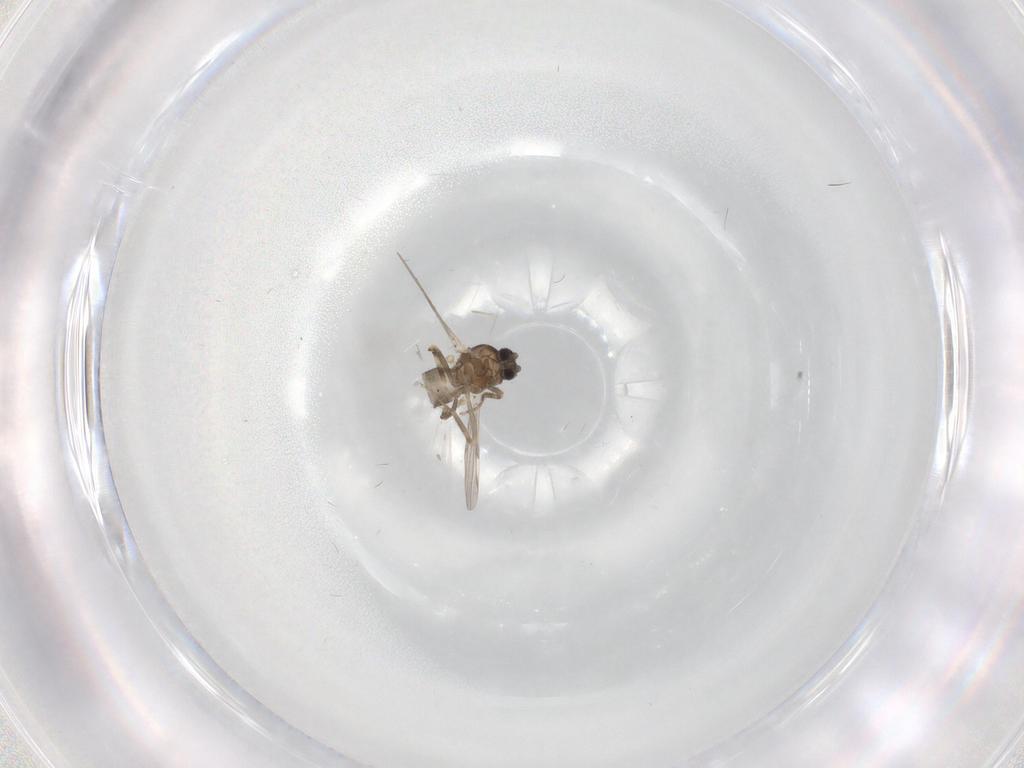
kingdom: Animalia
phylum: Arthropoda
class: Insecta
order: Diptera
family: Ceratopogonidae
